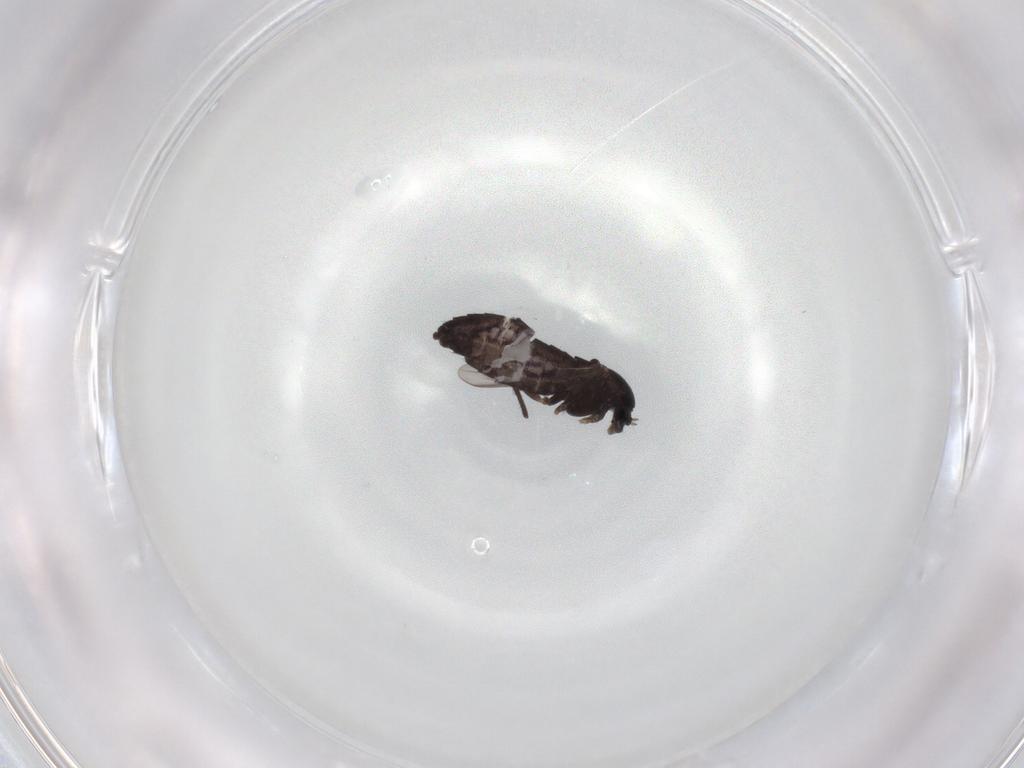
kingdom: Animalia
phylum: Arthropoda
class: Insecta
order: Diptera
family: Chironomidae
